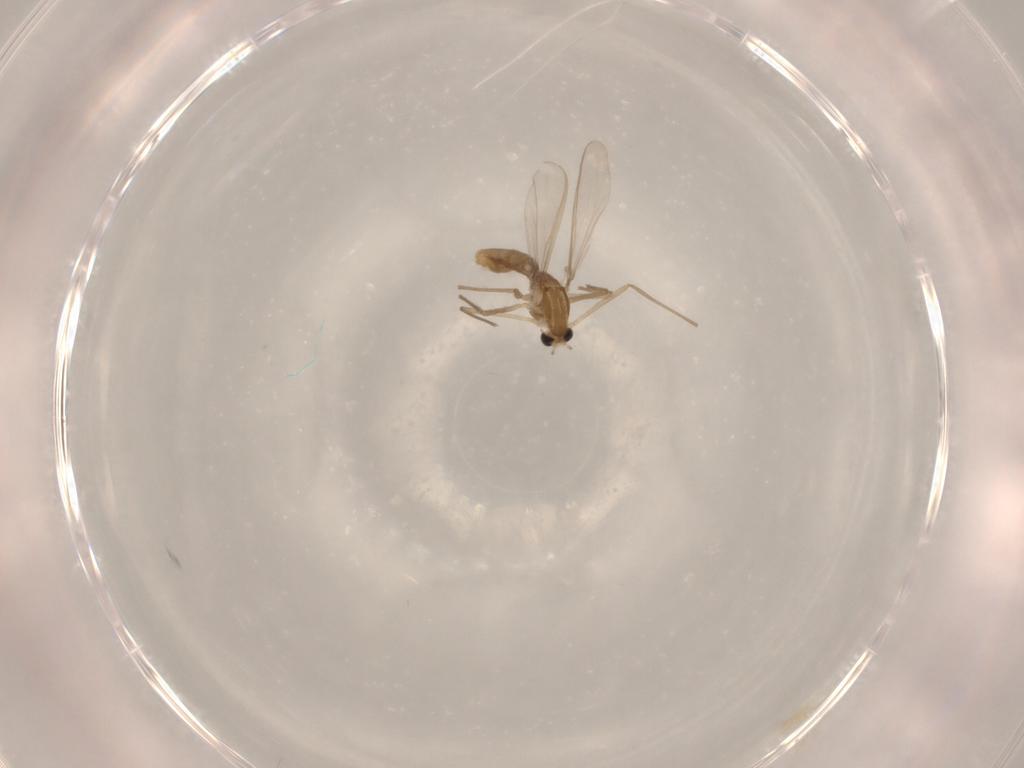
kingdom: Animalia
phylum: Arthropoda
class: Insecta
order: Diptera
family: Chironomidae
